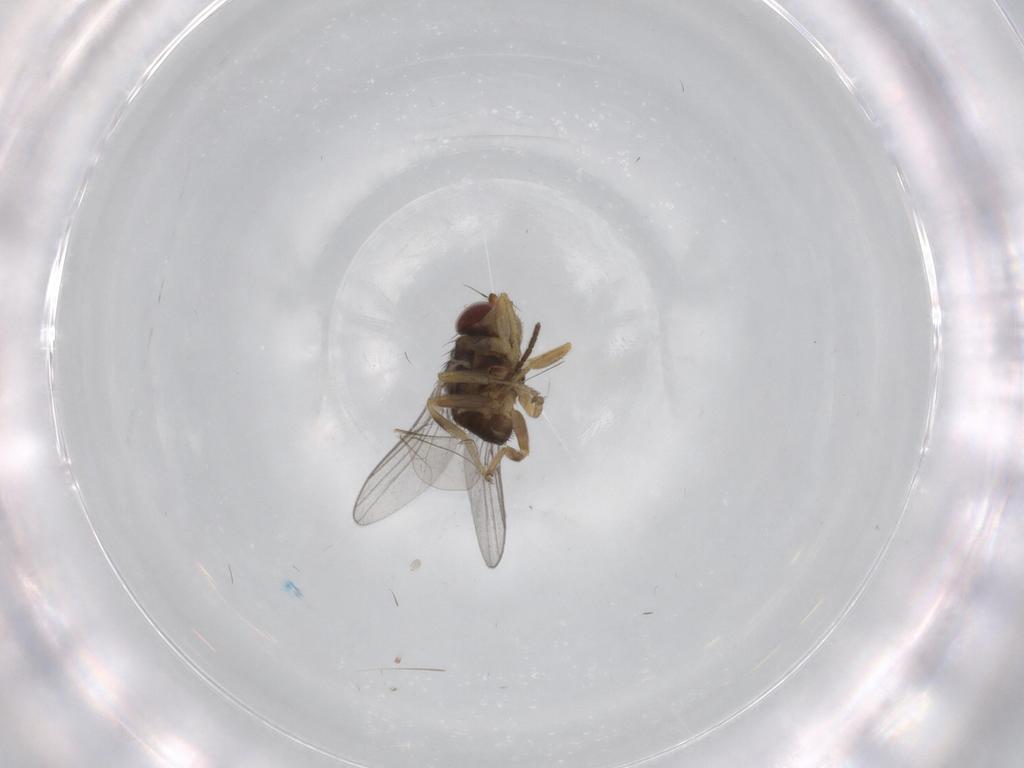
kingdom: Animalia
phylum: Arthropoda
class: Insecta
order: Diptera
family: Chloropidae
